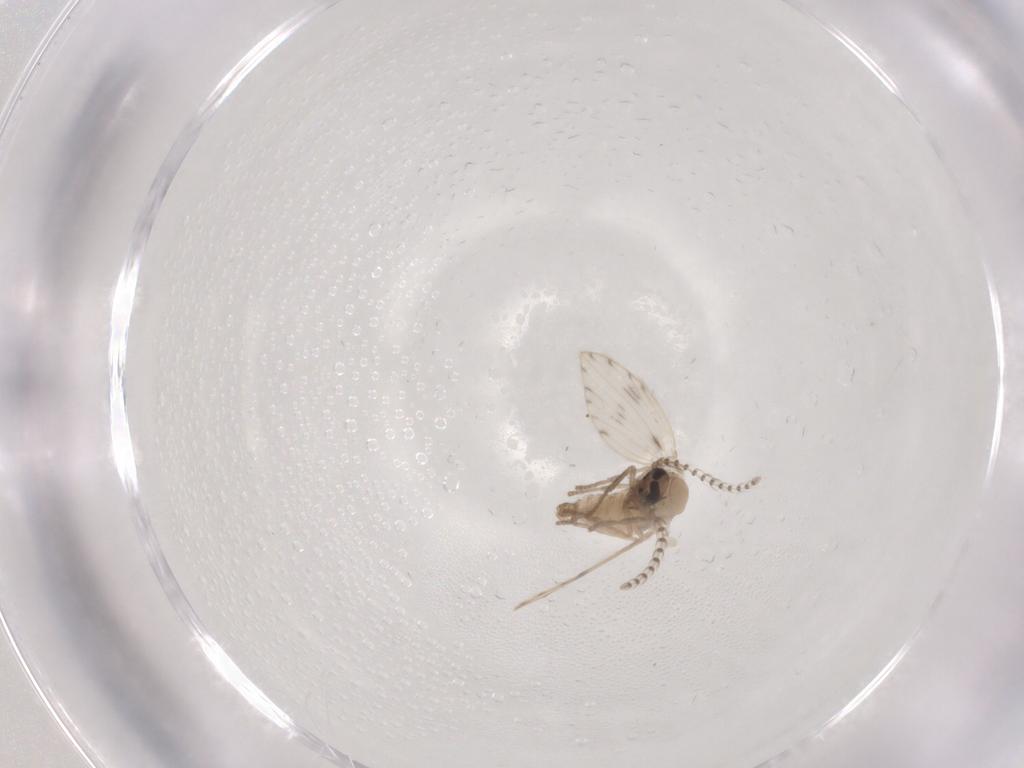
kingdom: Animalia
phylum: Arthropoda
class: Insecta
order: Diptera
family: Psychodidae
